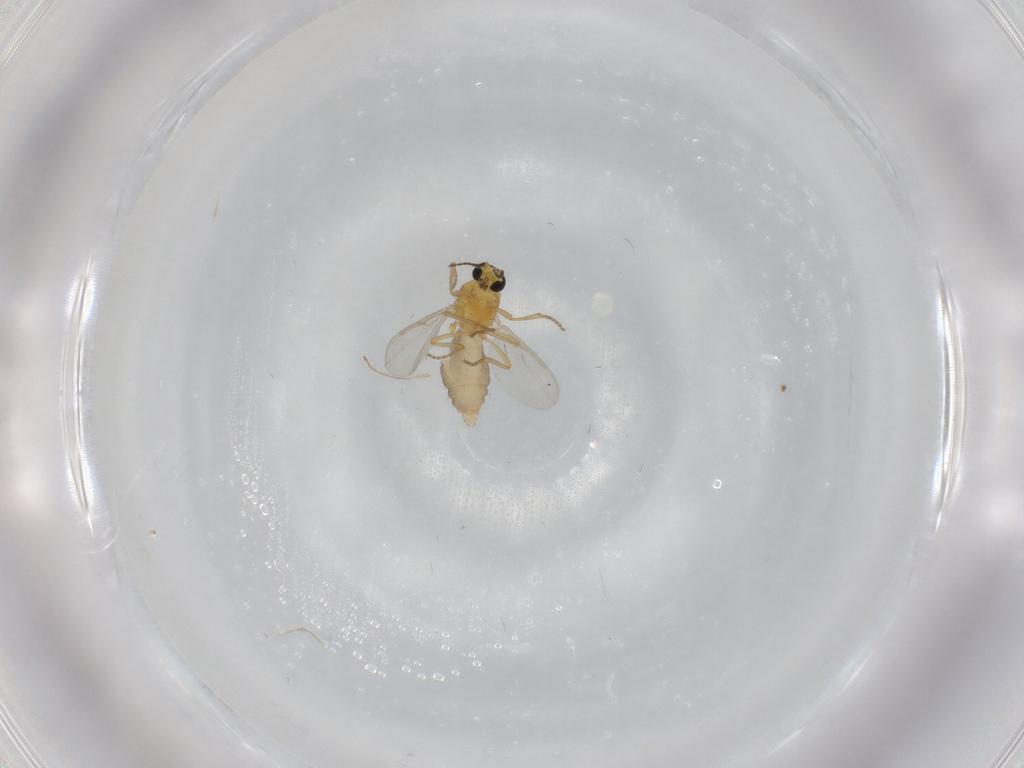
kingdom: Animalia
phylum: Arthropoda
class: Insecta
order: Diptera
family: Ceratopogonidae
